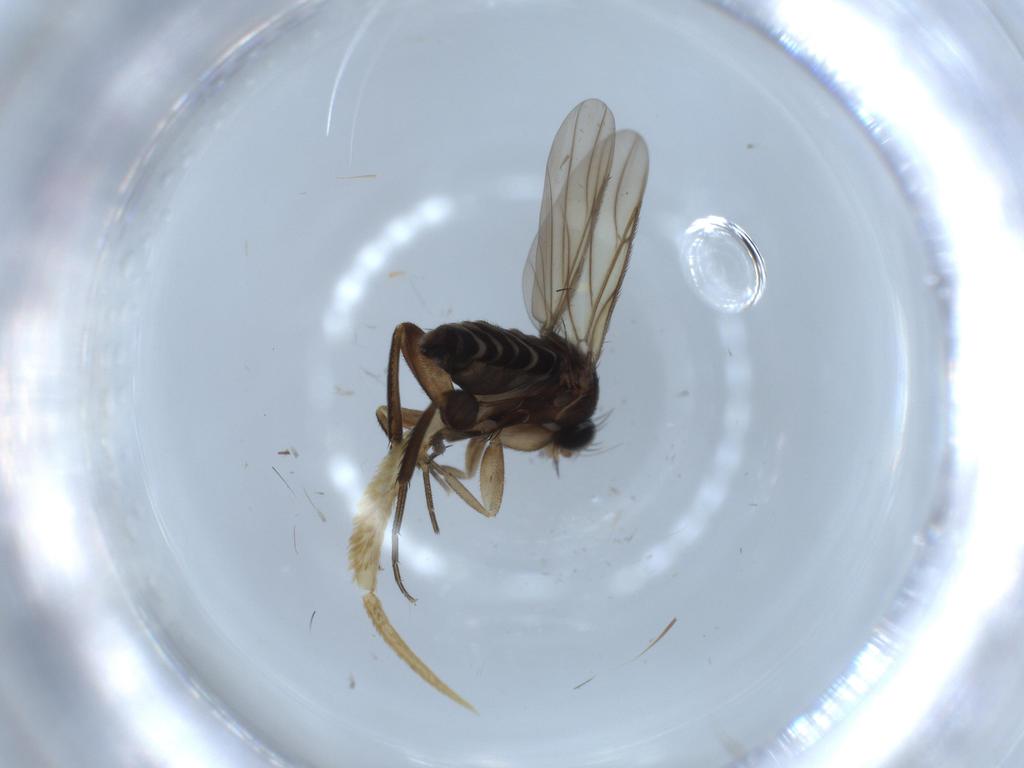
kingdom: Animalia
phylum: Arthropoda
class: Insecta
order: Diptera
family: Phoridae
